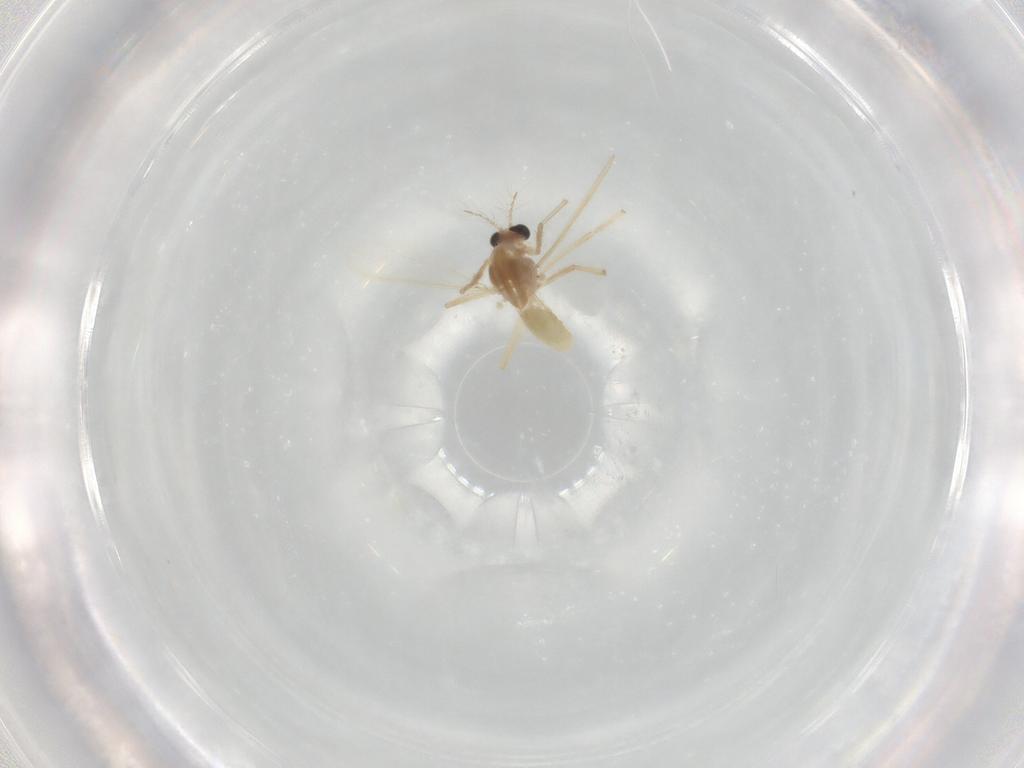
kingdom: Animalia
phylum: Arthropoda
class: Insecta
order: Diptera
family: Chironomidae
